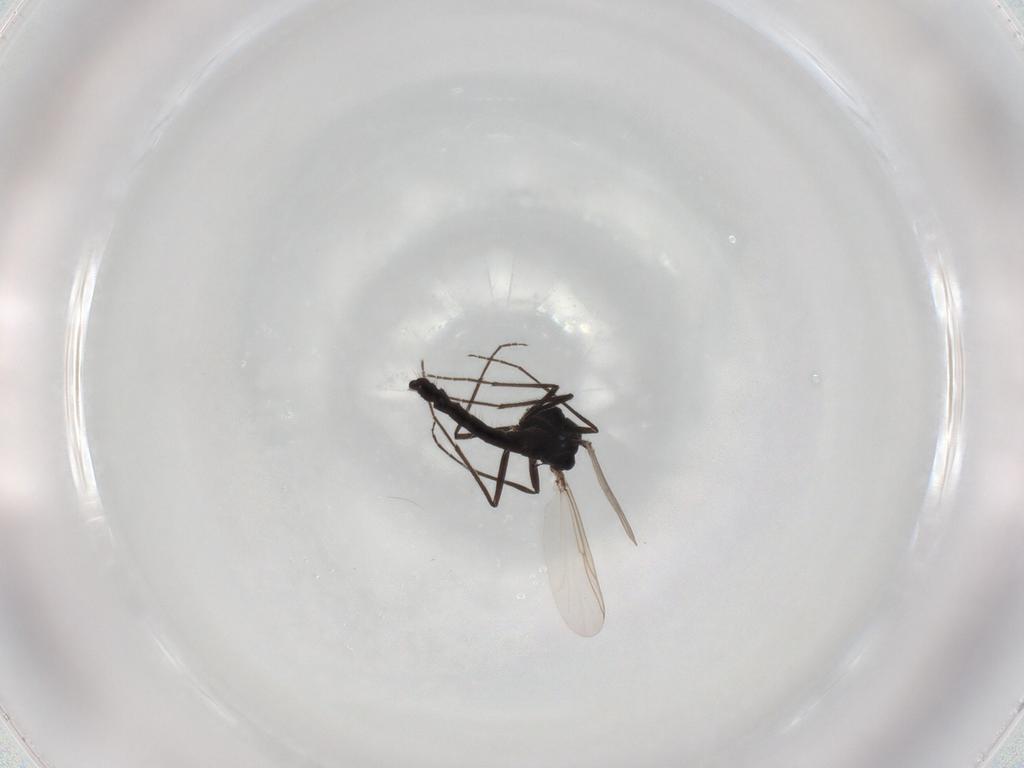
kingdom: Animalia
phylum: Arthropoda
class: Insecta
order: Diptera
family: Chironomidae
